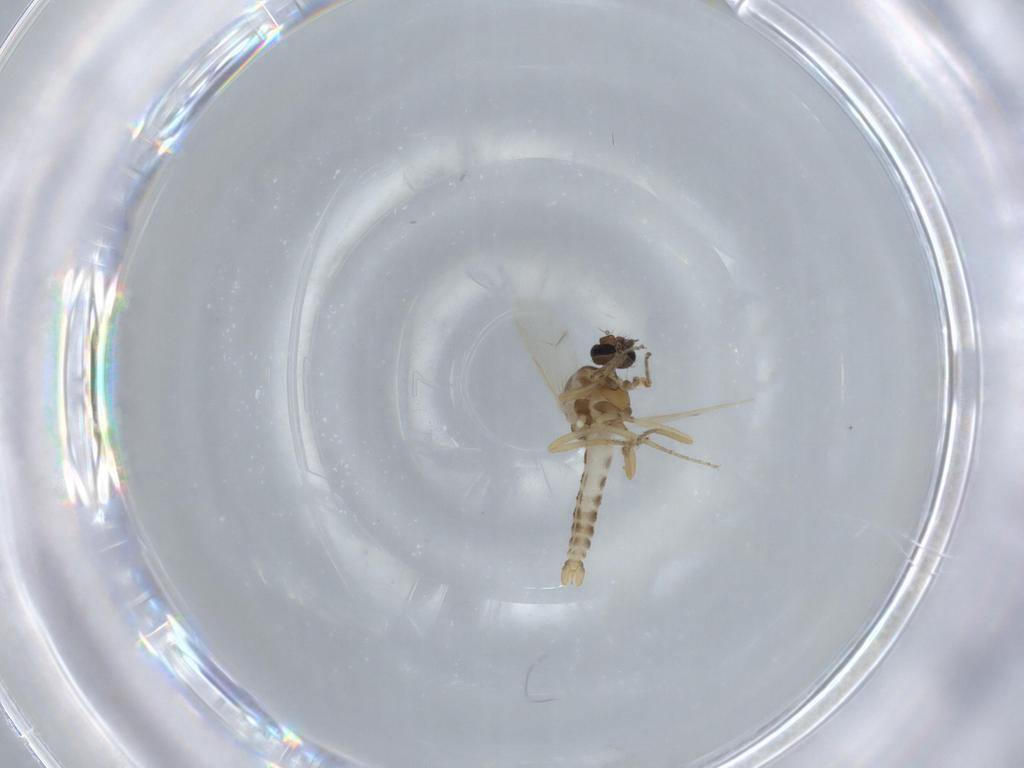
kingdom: Animalia
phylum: Arthropoda
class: Insecta
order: Diptera
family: Ceratopogonidae
